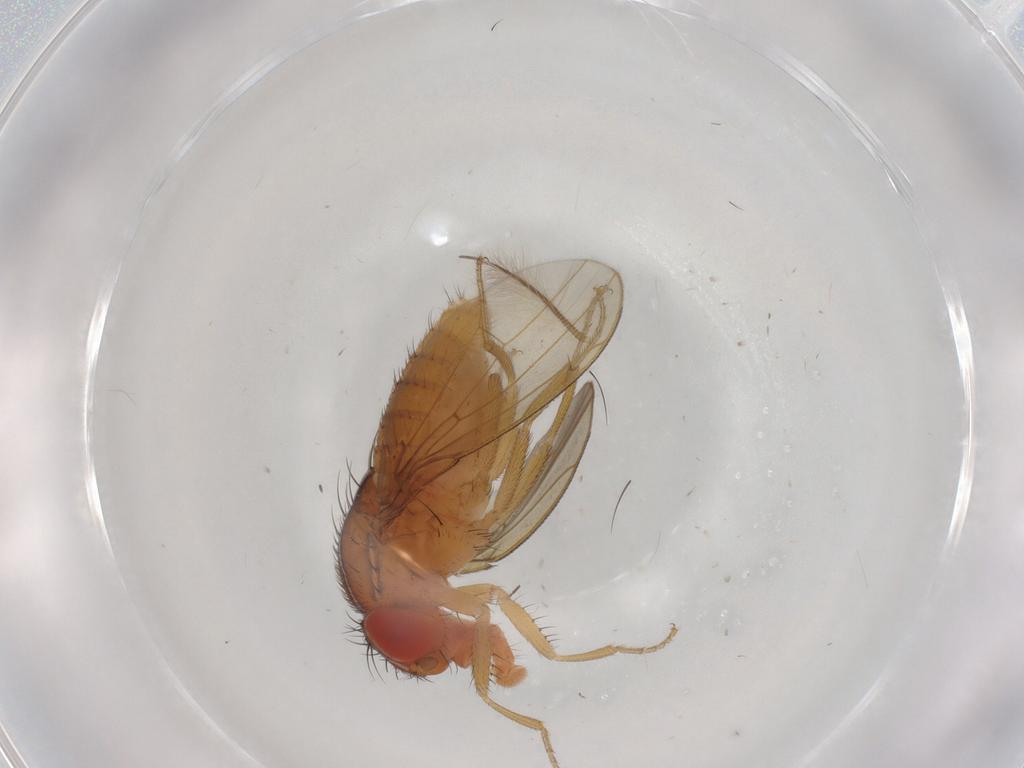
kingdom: Animalia
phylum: Arthropoda
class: Insecta
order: Diptera
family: Drosophilidae
